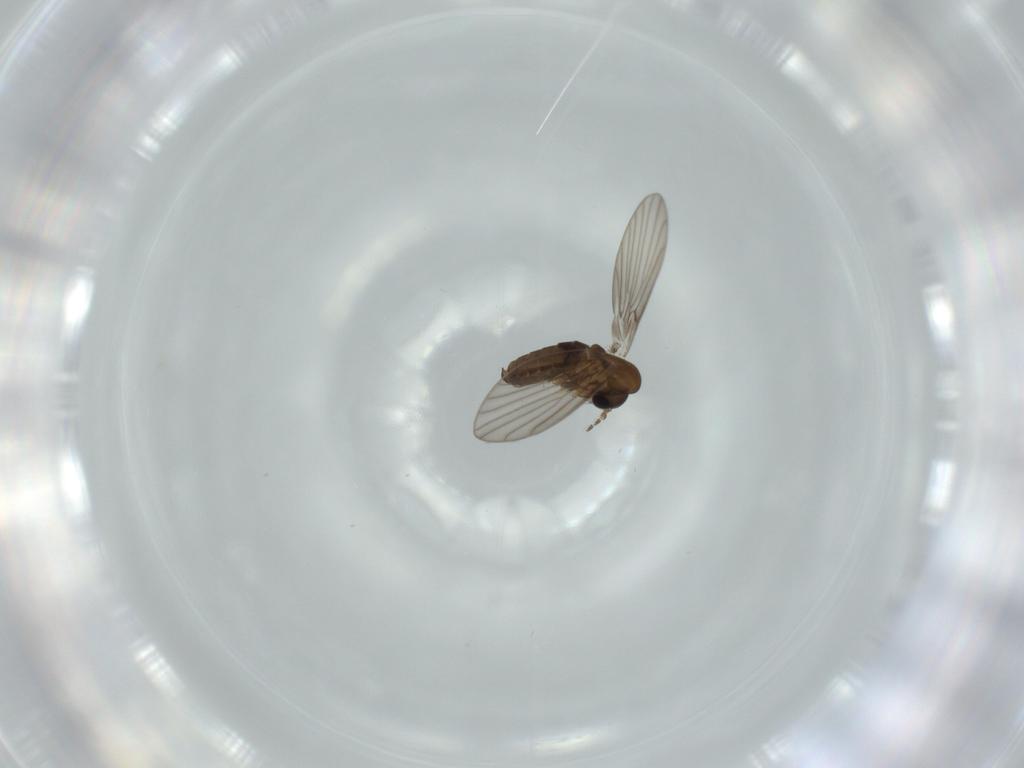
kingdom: Animalia
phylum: Arthropoda
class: Insecta
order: Diptera
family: Psychodidae
